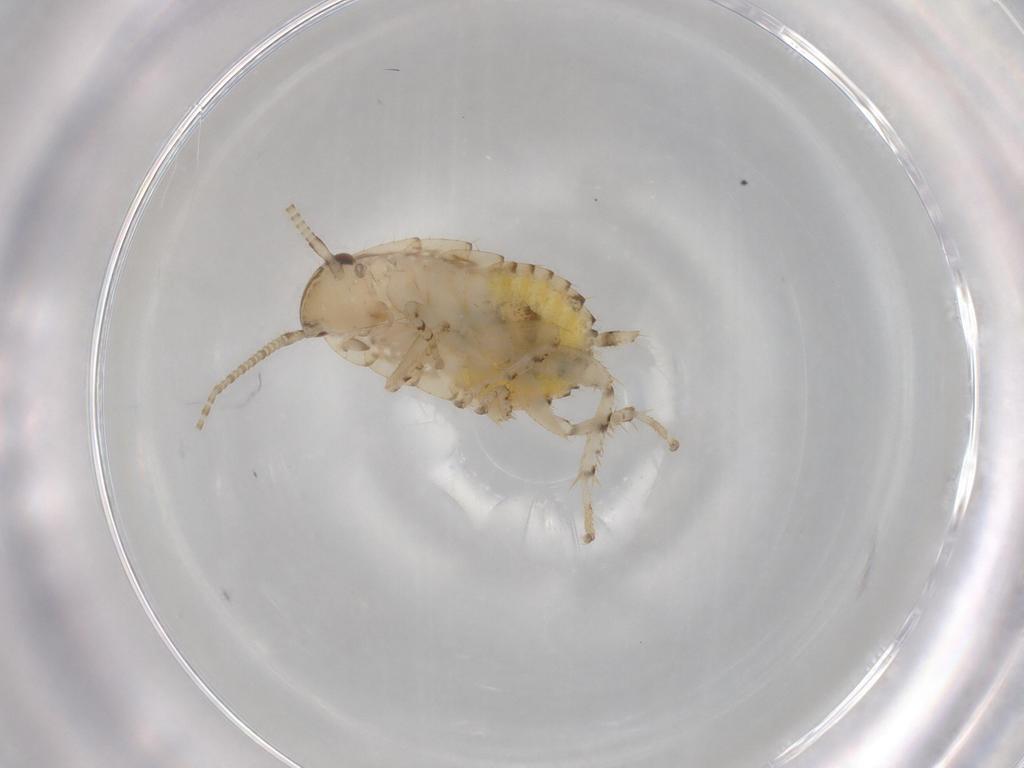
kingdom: Animalia
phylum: Arthropoda
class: Insecta
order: Blattodea
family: Ectobiidae
